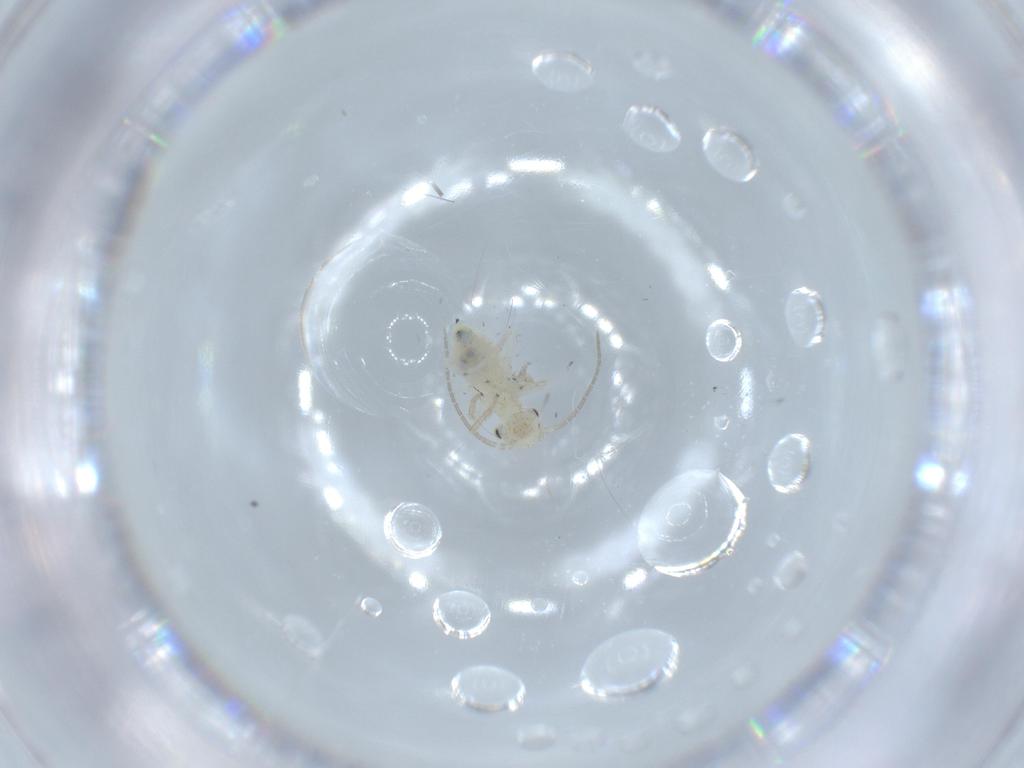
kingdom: Animalia
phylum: Arthropoda
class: Insecta
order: Psocodea
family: Caeciliusidae
